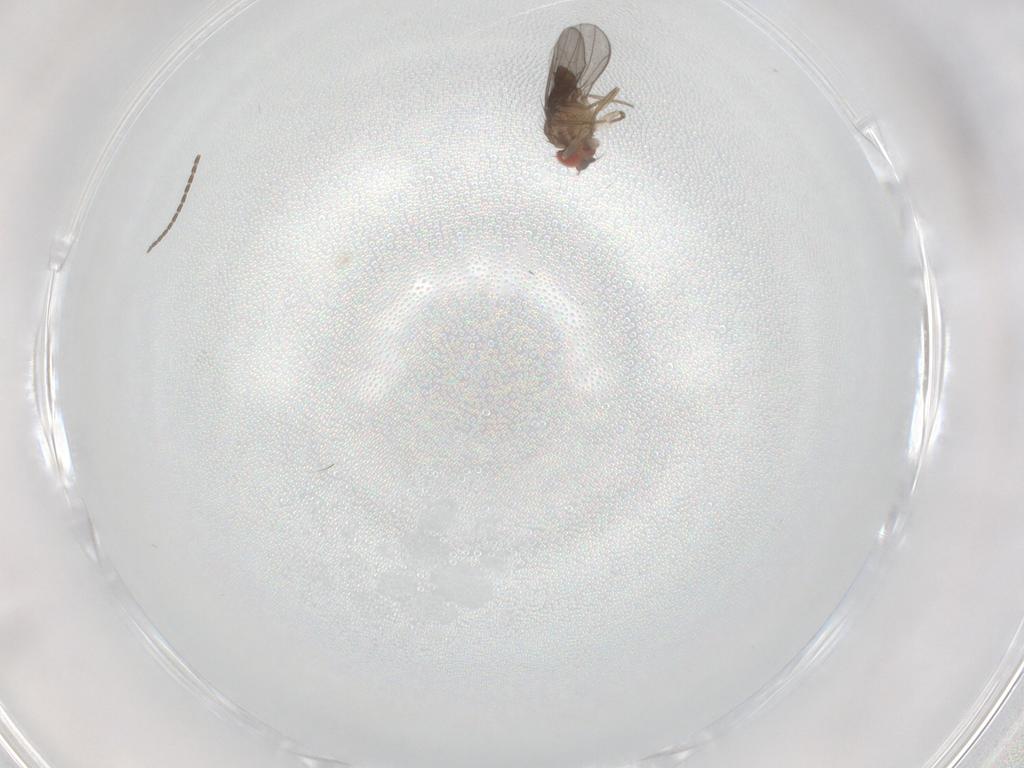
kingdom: Animalia
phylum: Arthropoda
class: Insecta
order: Diptera
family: Drosophilidae
